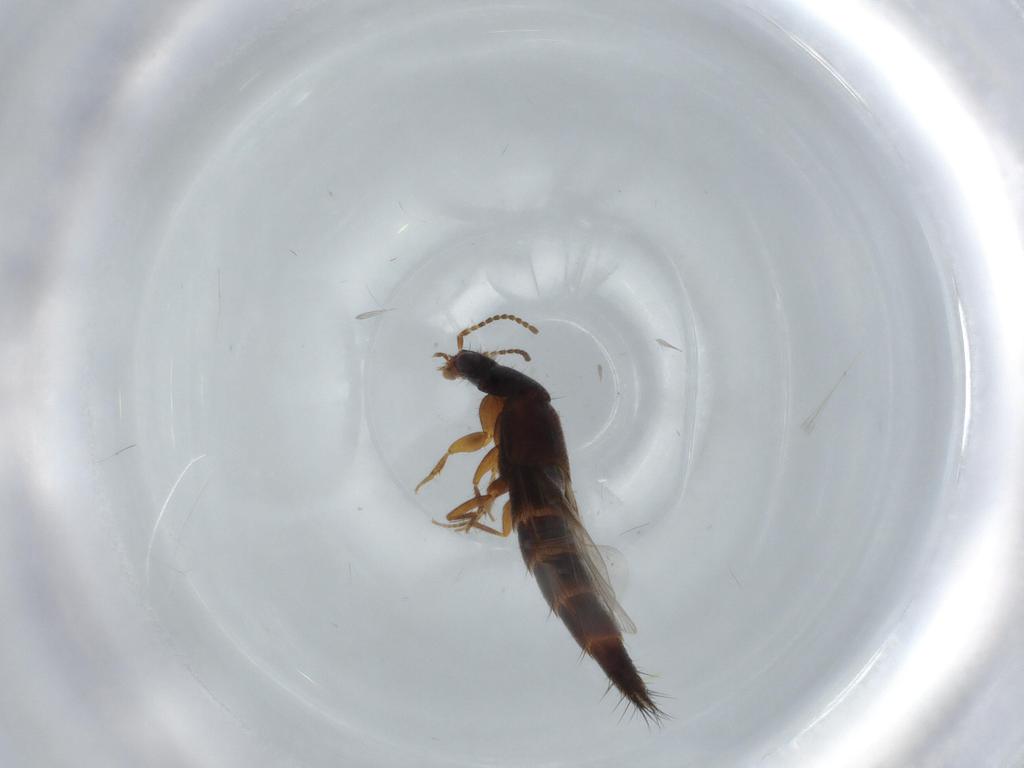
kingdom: Animalia
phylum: Arthropoda
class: Insecta
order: Coleoptera
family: Staphylinidae
